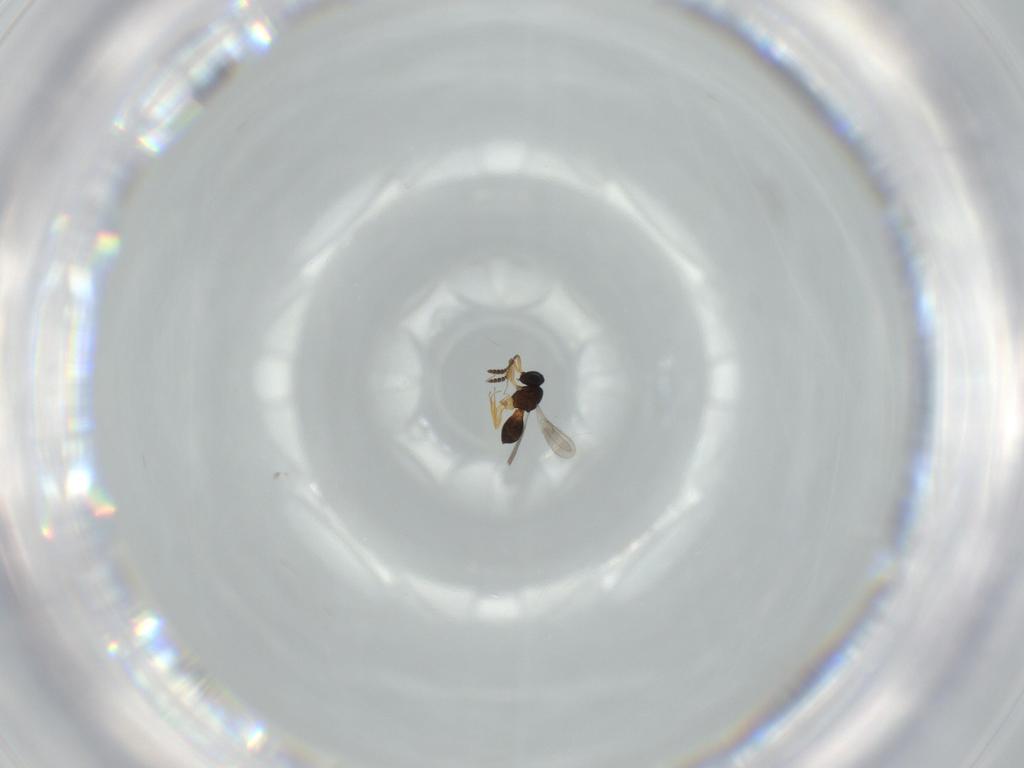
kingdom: Animalia
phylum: Arthropoda
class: Insecta
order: Hymenoptera
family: Scelionidae
